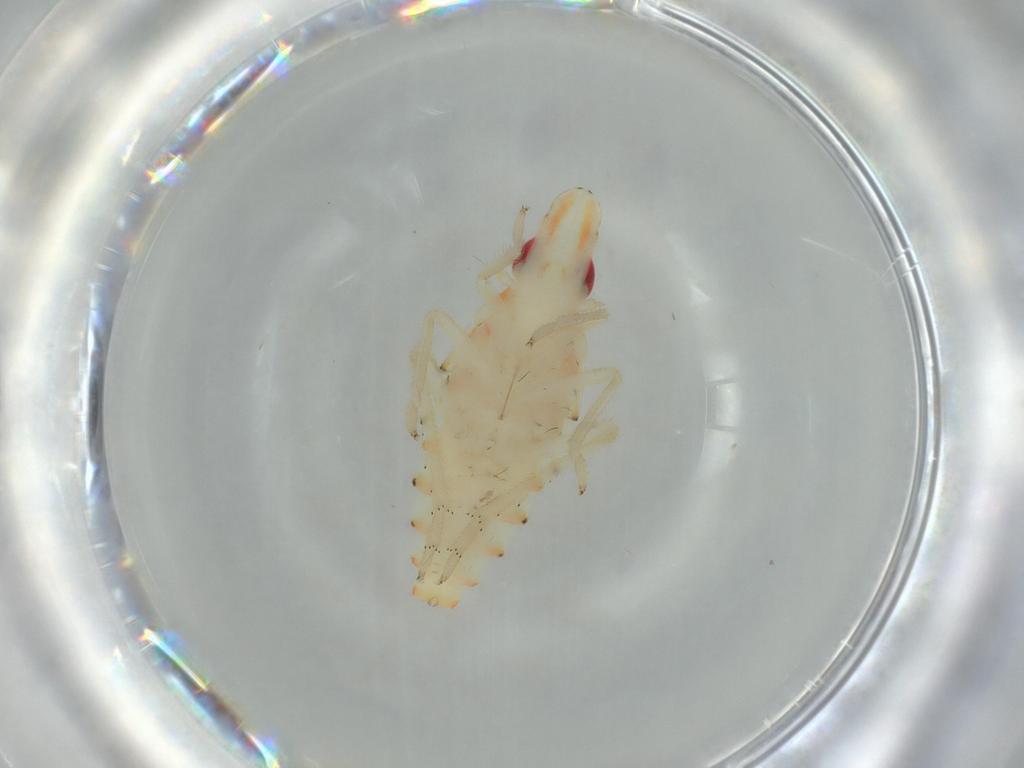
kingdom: Animalia
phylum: Arthropoda
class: Insecta
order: Hemiptera
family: Tropiduchidae
